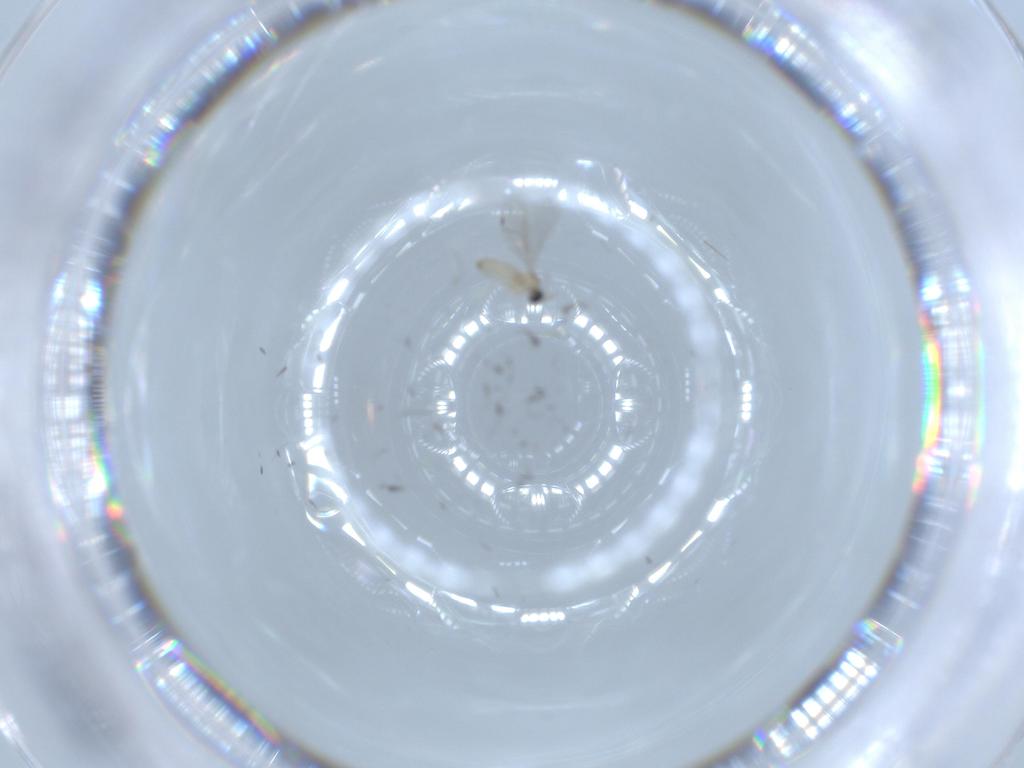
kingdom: Animalia
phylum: Arthropoda
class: Insecta
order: Diptera
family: Cecidomyiidae
